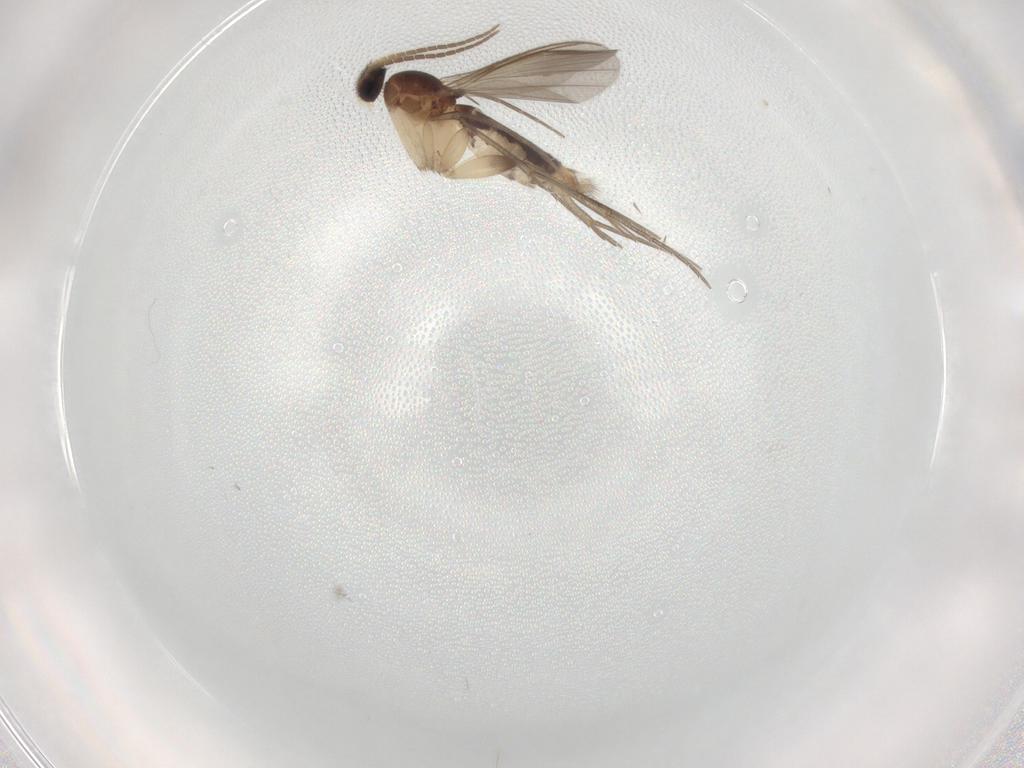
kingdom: Animalia
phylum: Arthropoda
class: Insecta
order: Diptera
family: Mycetophilidae
